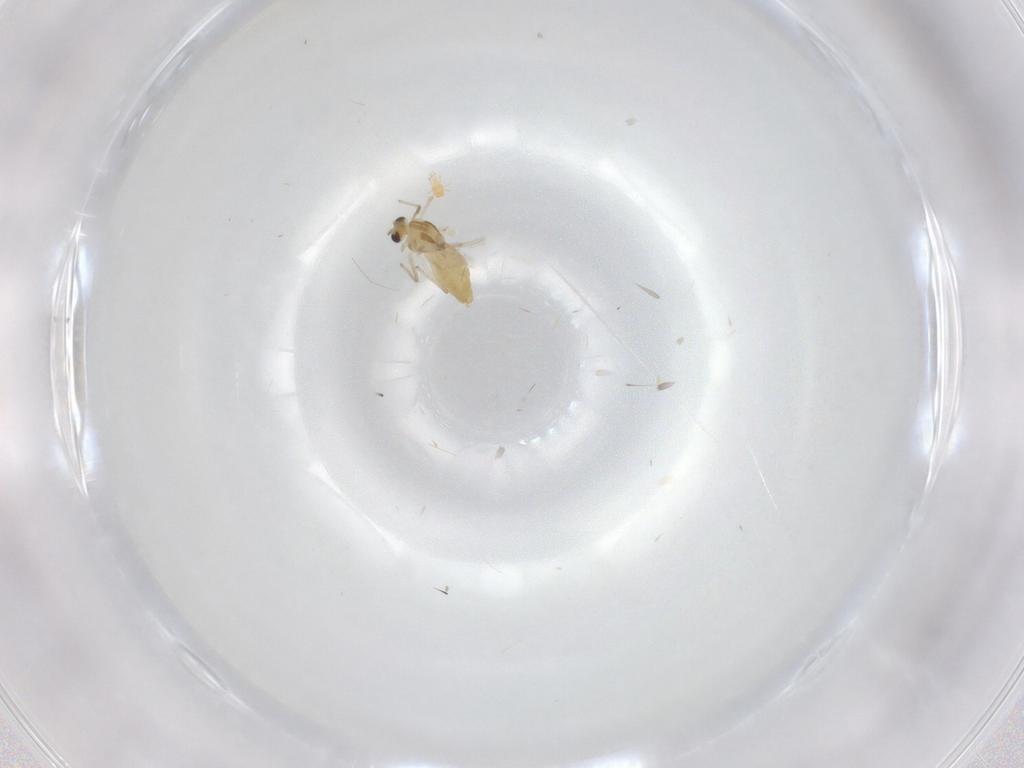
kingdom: Animalia
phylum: Arthropoda
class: Insecta
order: Diptera
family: Chironomidae
